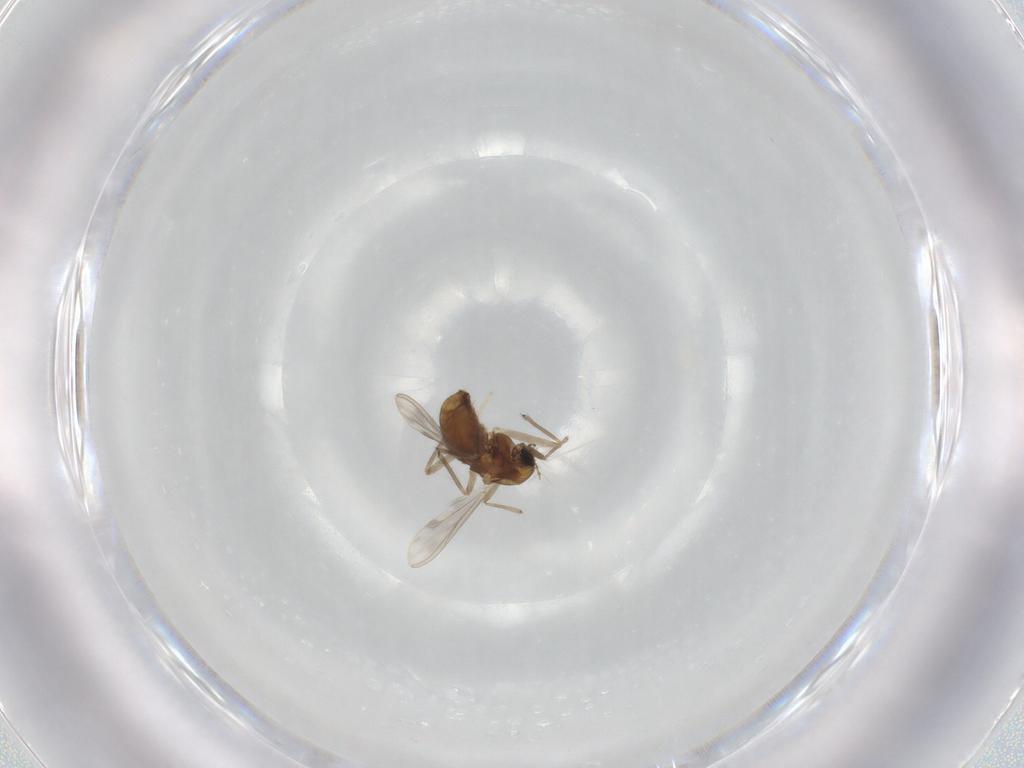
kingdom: Animalia
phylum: Arthropoda
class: Insecta
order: Diptera
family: Chironomidae
